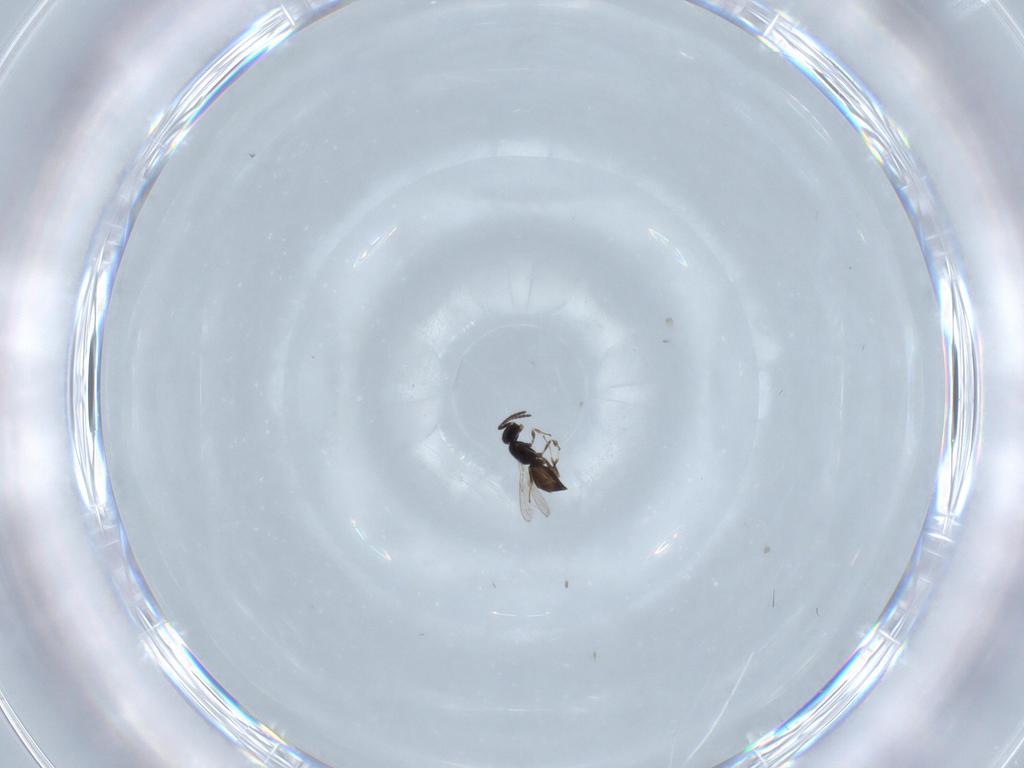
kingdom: Animalia
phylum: Arthropoda
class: Insecta
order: Hymenoptera
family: Scelionidae
